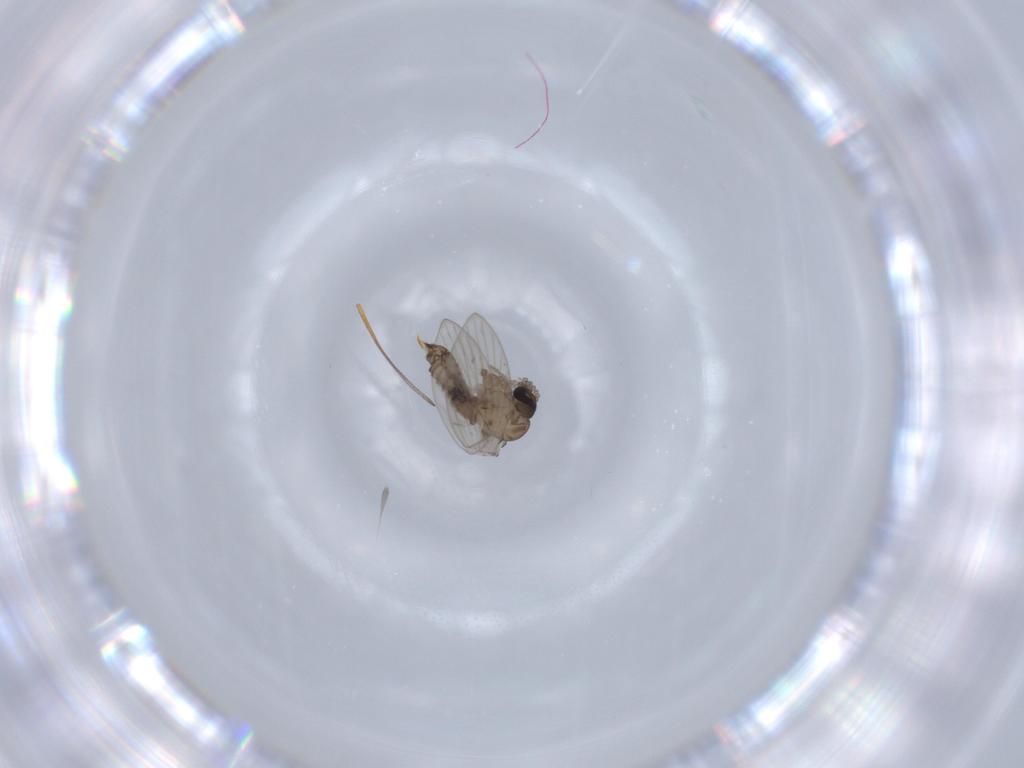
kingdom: Animalia
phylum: Arthropoda
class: Insecta
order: Diptera
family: Psychodidae
